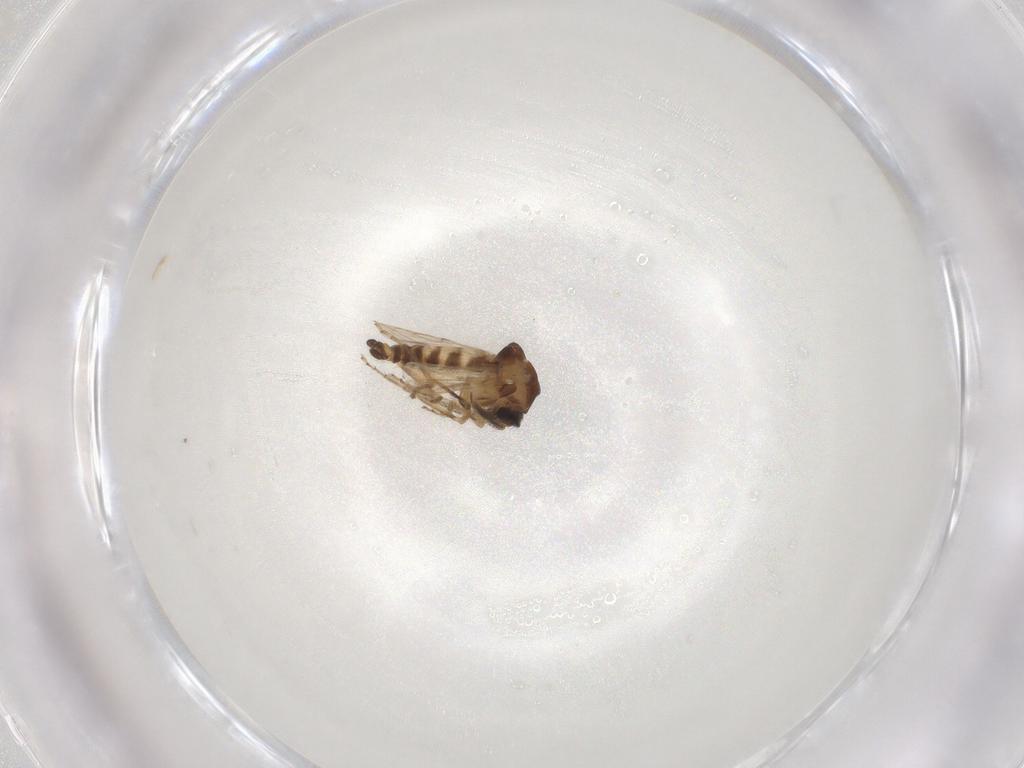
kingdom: Animalia
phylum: Arthropoda
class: Insecta
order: Diptera
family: Ceratopogonidae
